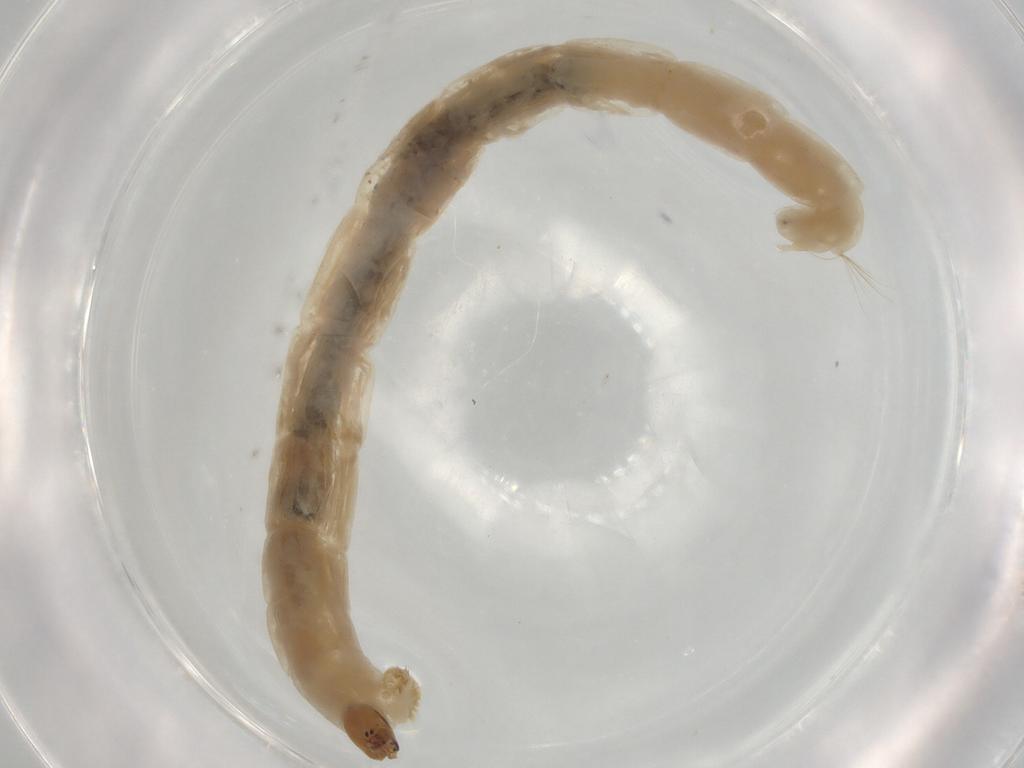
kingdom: Animalia
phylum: Arthropoda
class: Insecta
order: Diptera
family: Chironomidae
